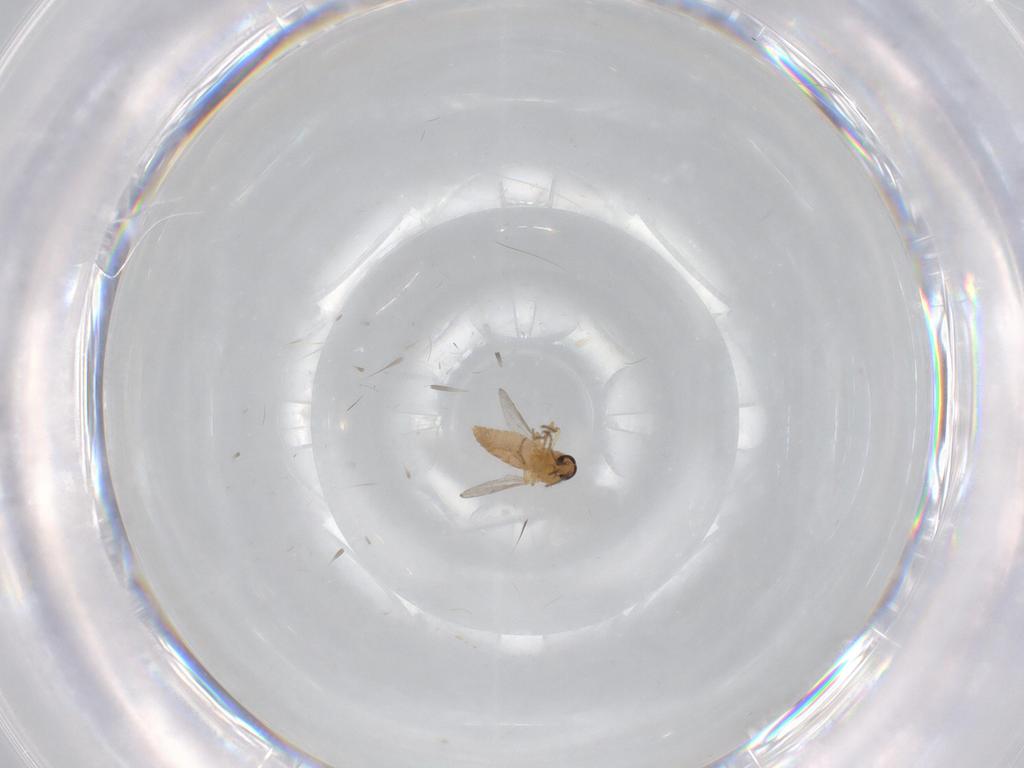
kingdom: Animalia
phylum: Arthropoda
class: Insecta
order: Diptera
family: Ceratopogonidae
